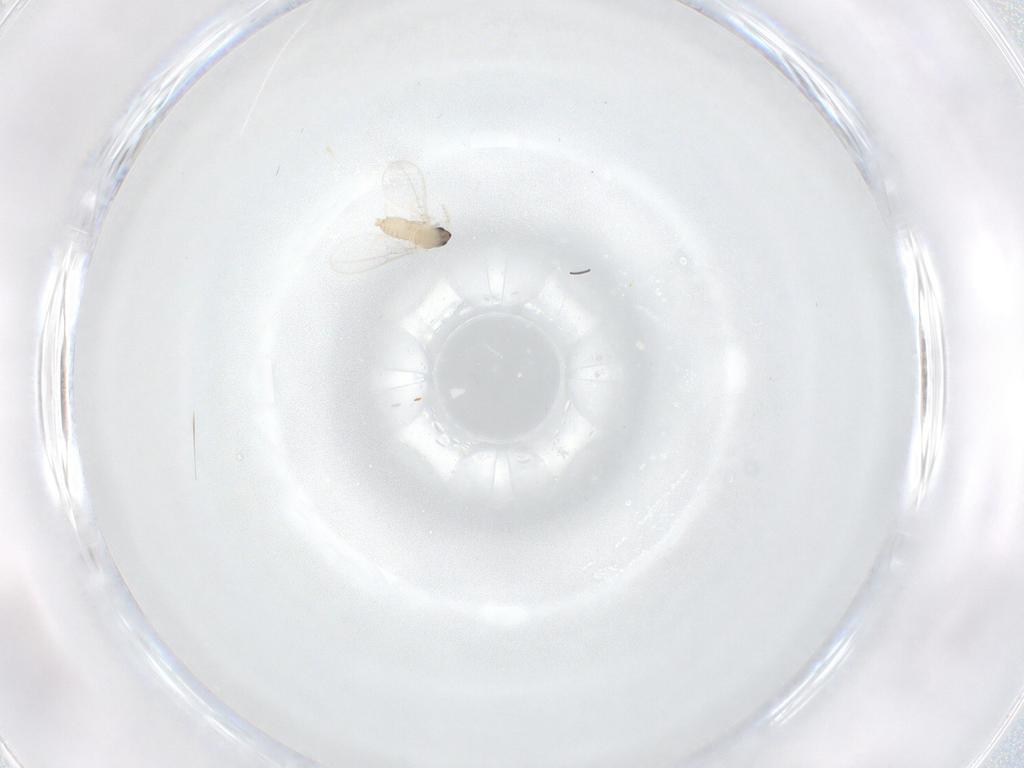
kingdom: Animalia
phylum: Arthropoda
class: Insecta
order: Diptera
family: Cecidomyiidae
